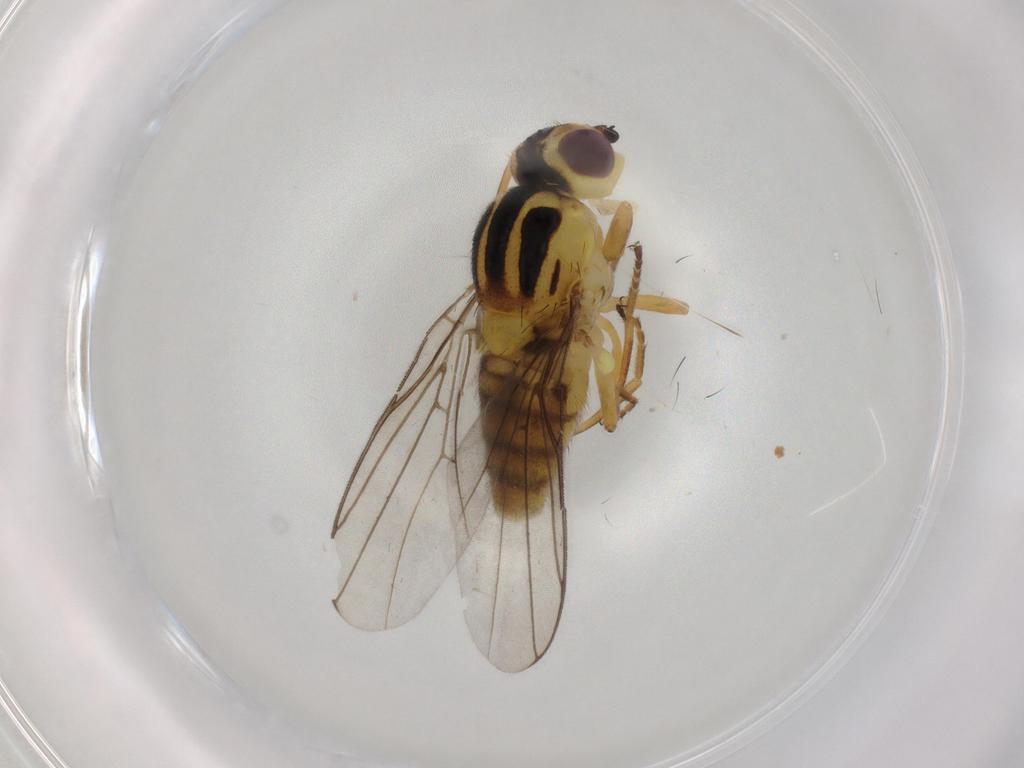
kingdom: Animalia
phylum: Arthropoda
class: Insecta
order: Diptera
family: Chloropidae
